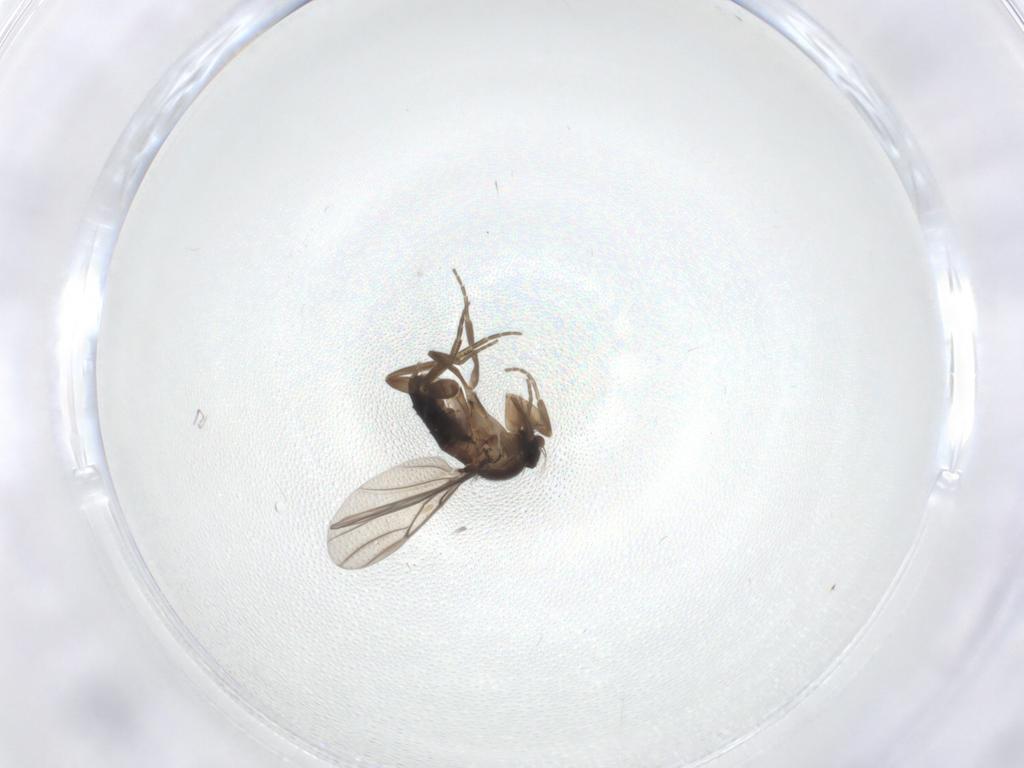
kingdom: Animalia
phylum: Arthropoda
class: Insecta
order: Diptera
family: Phoridae
